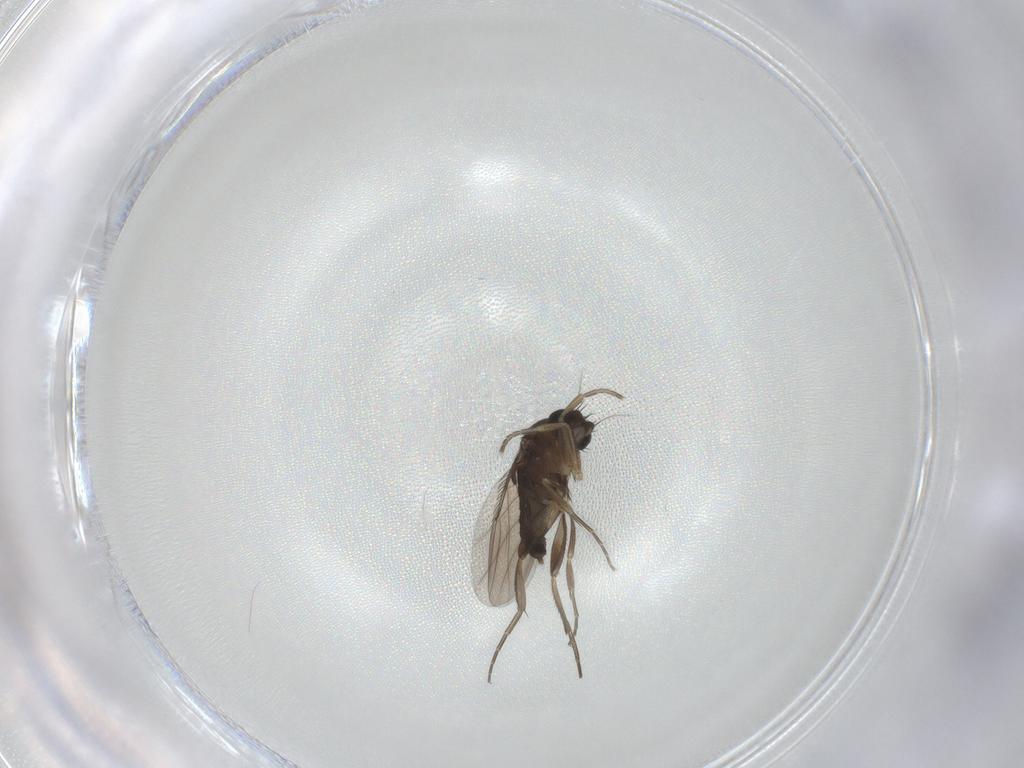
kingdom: Animalia
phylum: Arthropoda
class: Insecta
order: Diptera
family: Phoridae
